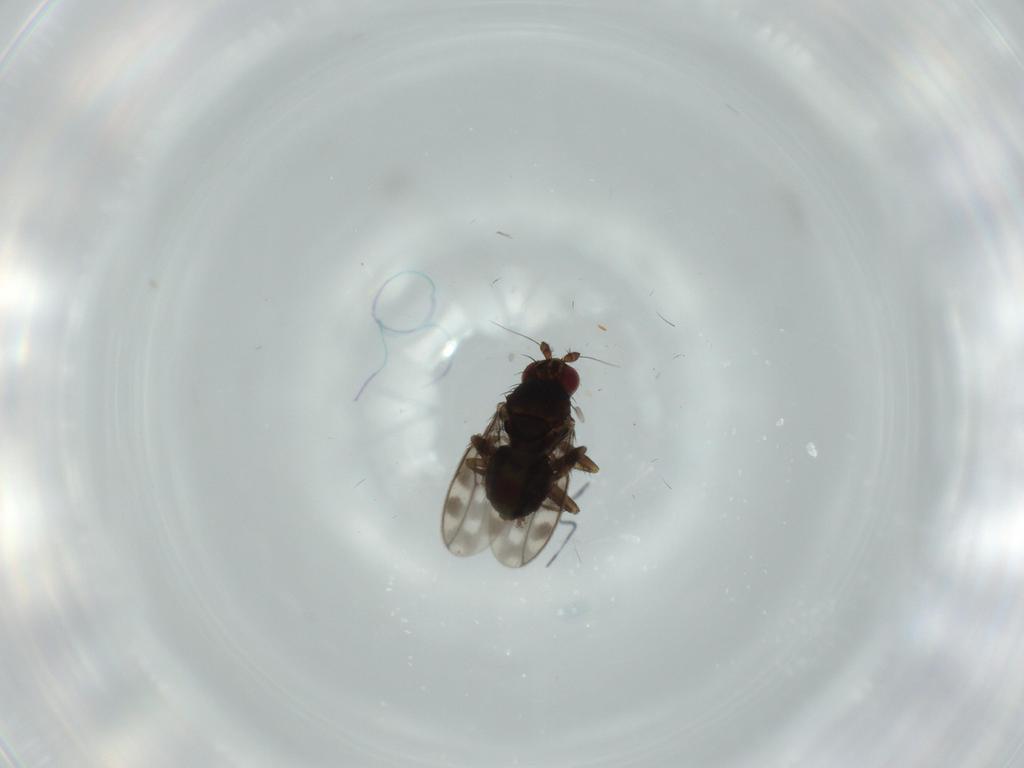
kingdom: Animalia
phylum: Arthropoda
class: Insecta
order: Diptera
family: Sphaeroceridae
